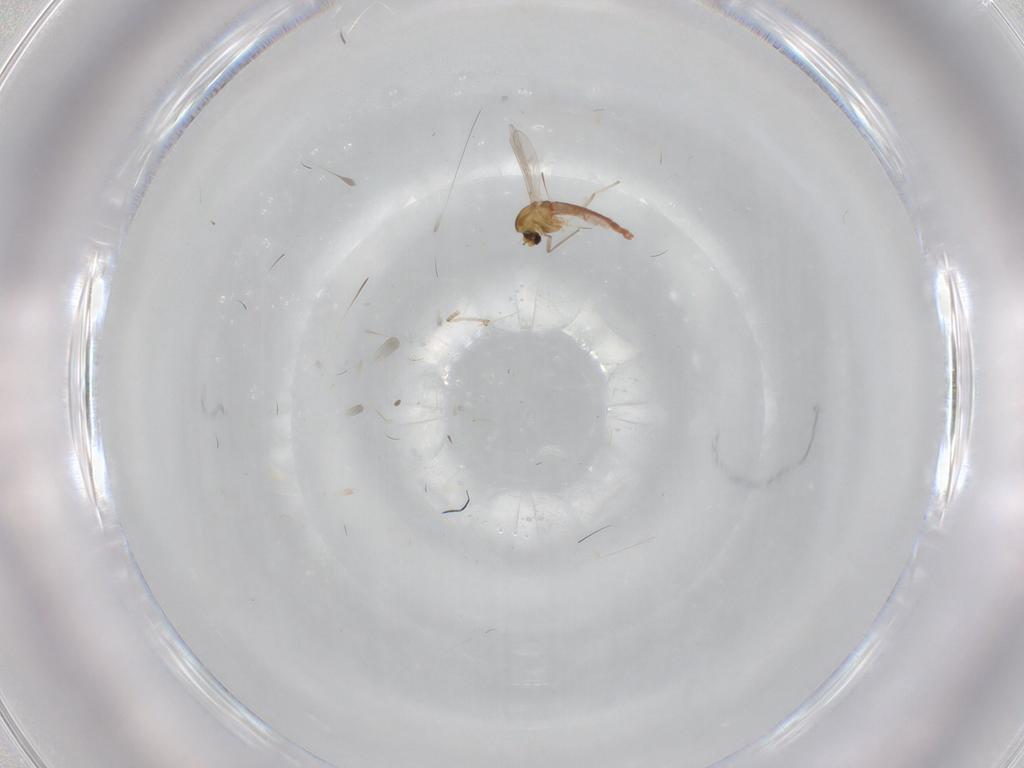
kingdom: Animalia
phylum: Arthropoda
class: Insecta
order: Diptera
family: Chironomidae
